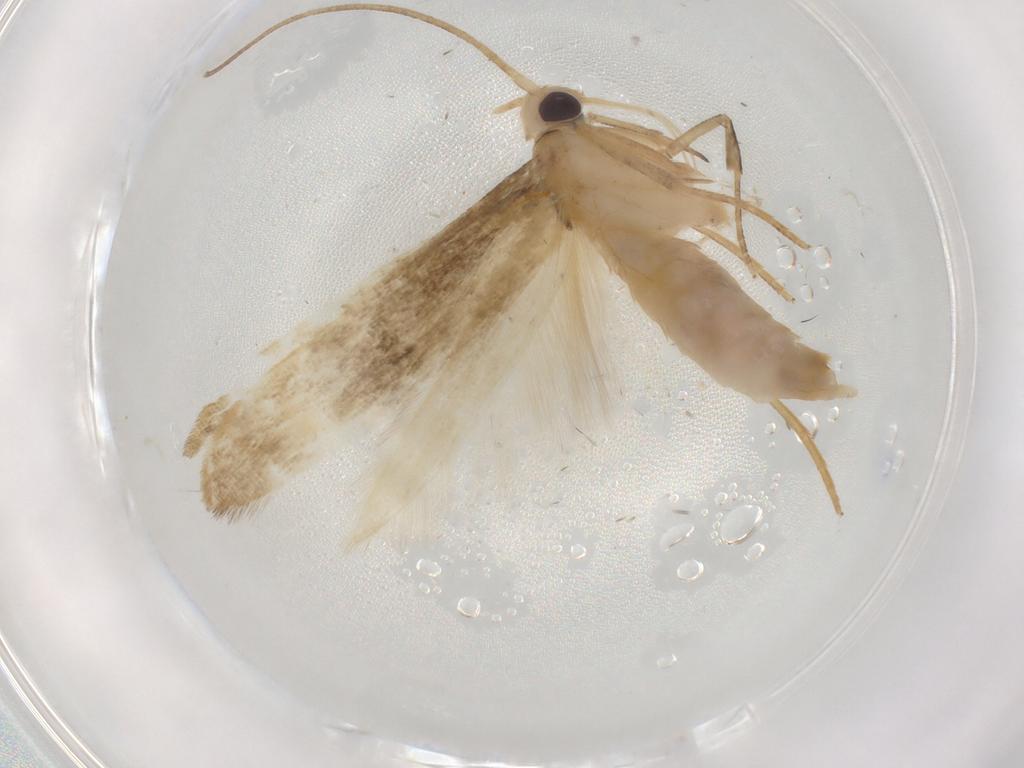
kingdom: Animalia
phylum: Arthropoda
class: Insecta
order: Lepidoptera
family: Nolidae
